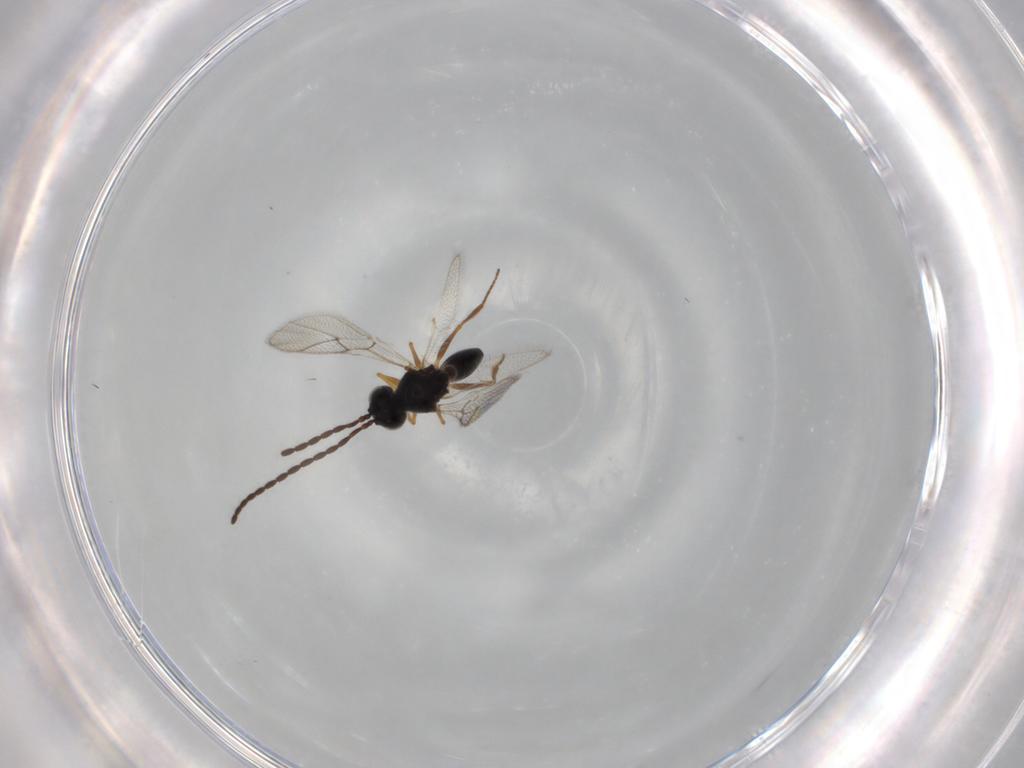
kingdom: Animalia
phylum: Arthropoda
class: Insecta
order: Hymenoptera
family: Figitidae
